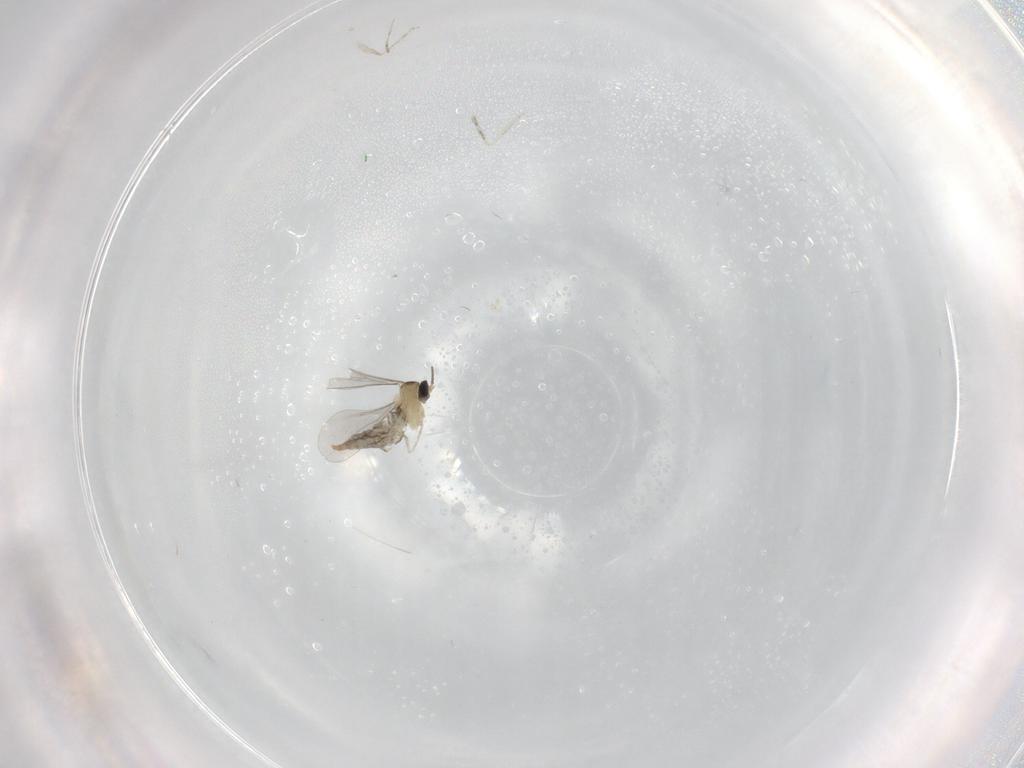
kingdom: Animalia
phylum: Arthropoda
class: Insecta
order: Diptera
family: Cecidomyiidae
